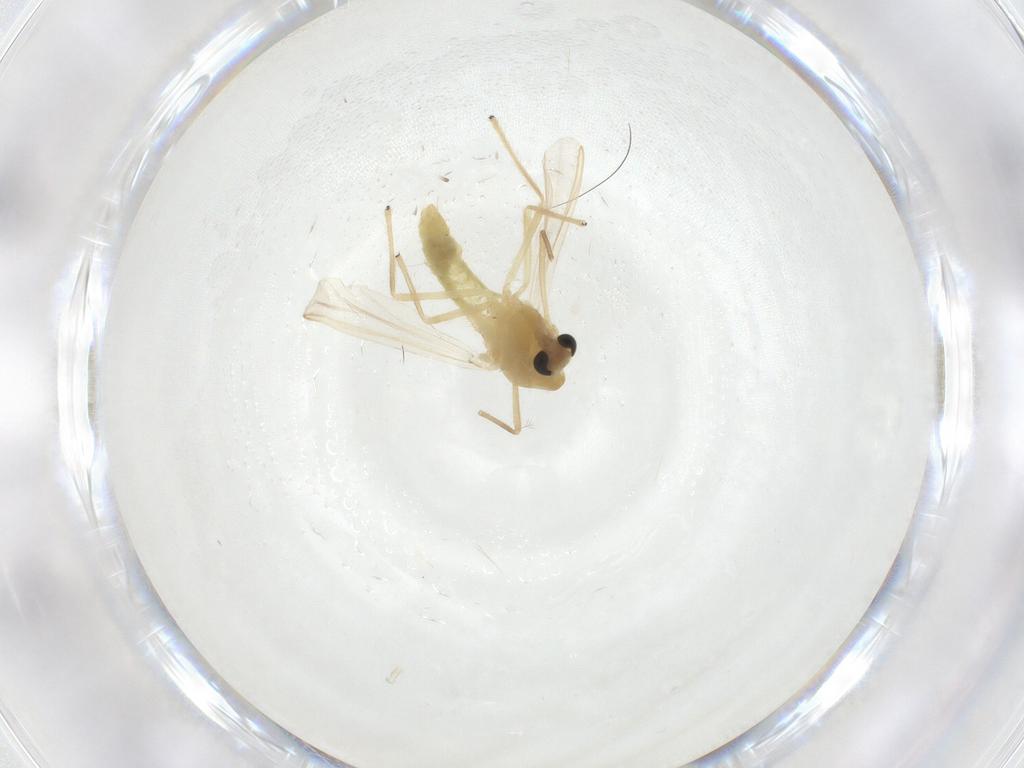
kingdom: Animalia
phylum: Arthropoda
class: Insecta
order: Diptera
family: Chironomidae
